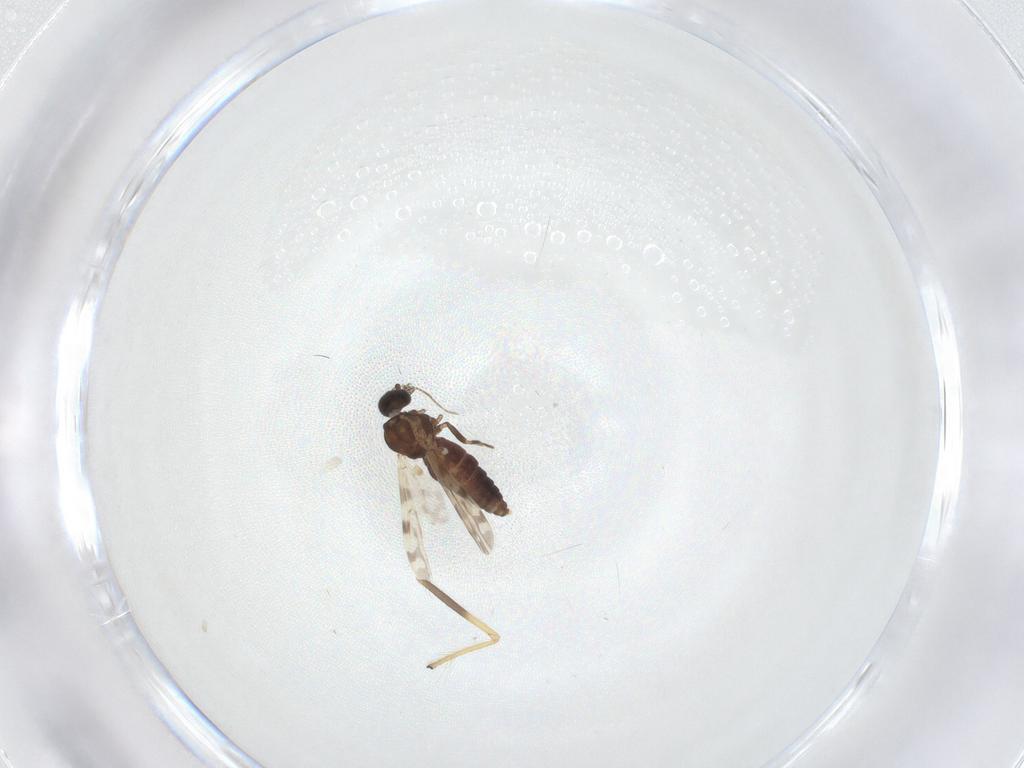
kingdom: Animalia
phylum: Arthropoda
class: Insecta
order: Diptera
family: Ceratopogonidae
